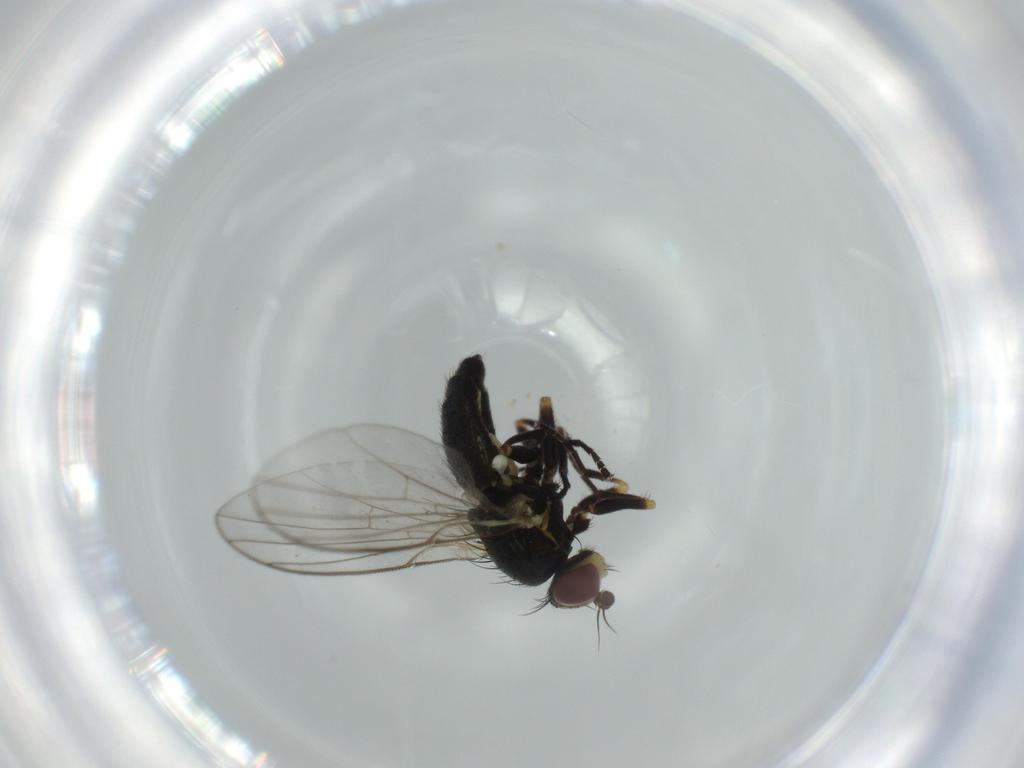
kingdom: Animalia
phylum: Arthropoda
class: Insecta
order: Diptera
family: Agromyzidae
